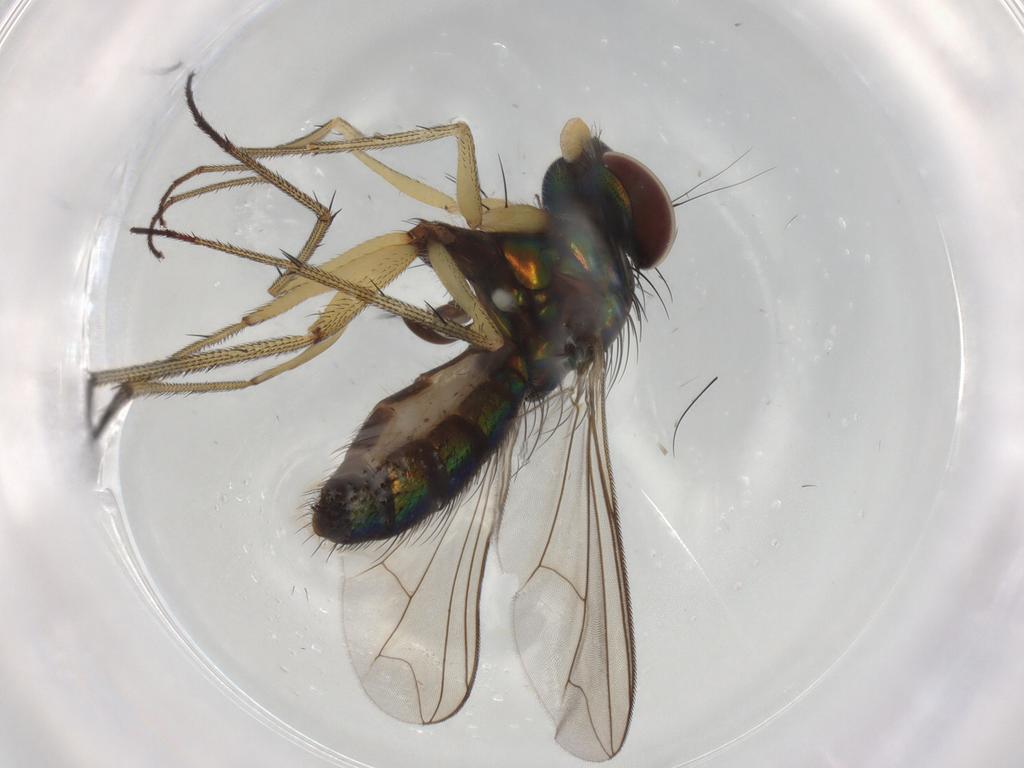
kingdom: Animalia
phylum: Arthropoda
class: Insecta
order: Diptera
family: Dolichopodidae
